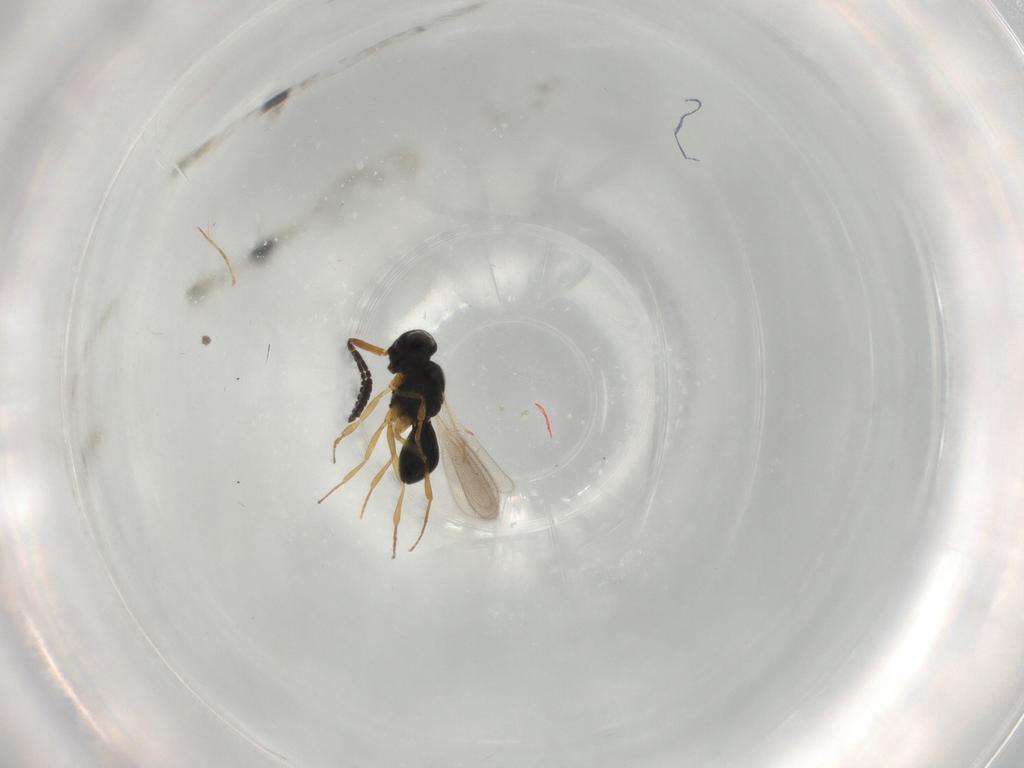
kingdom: Animalia
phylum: Arthropoda
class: Insecta
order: Hymenoptera
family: Scelionidae
